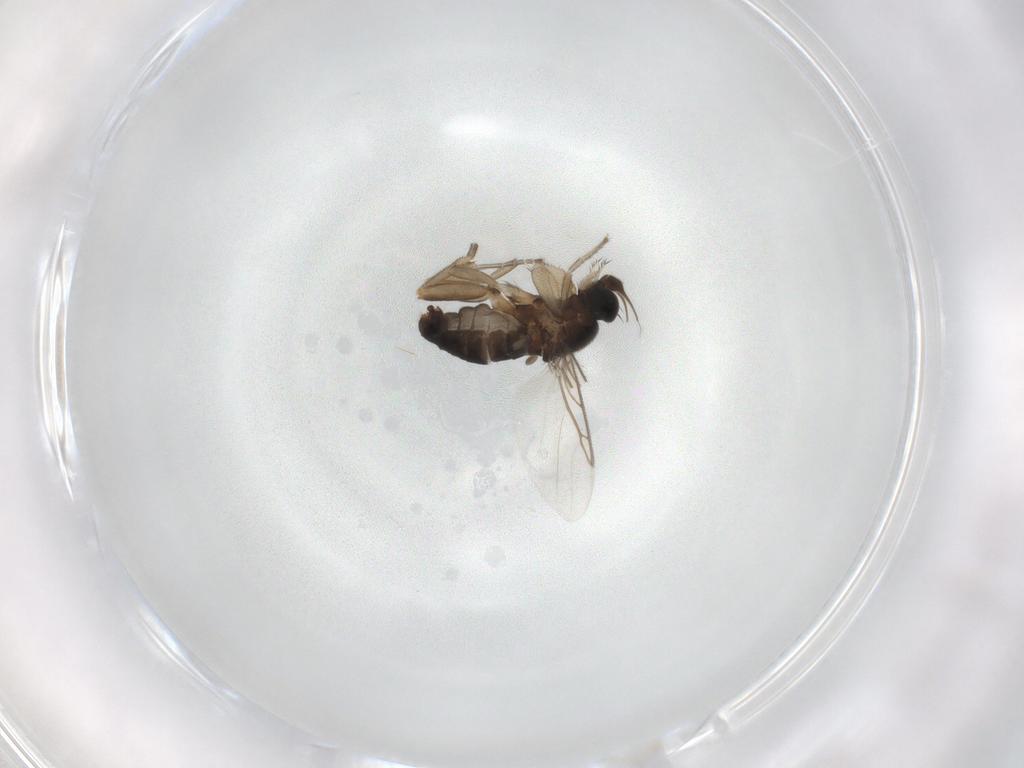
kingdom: Animalia
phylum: Arthropoda
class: Insecta
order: Diptera
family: Phoridae
